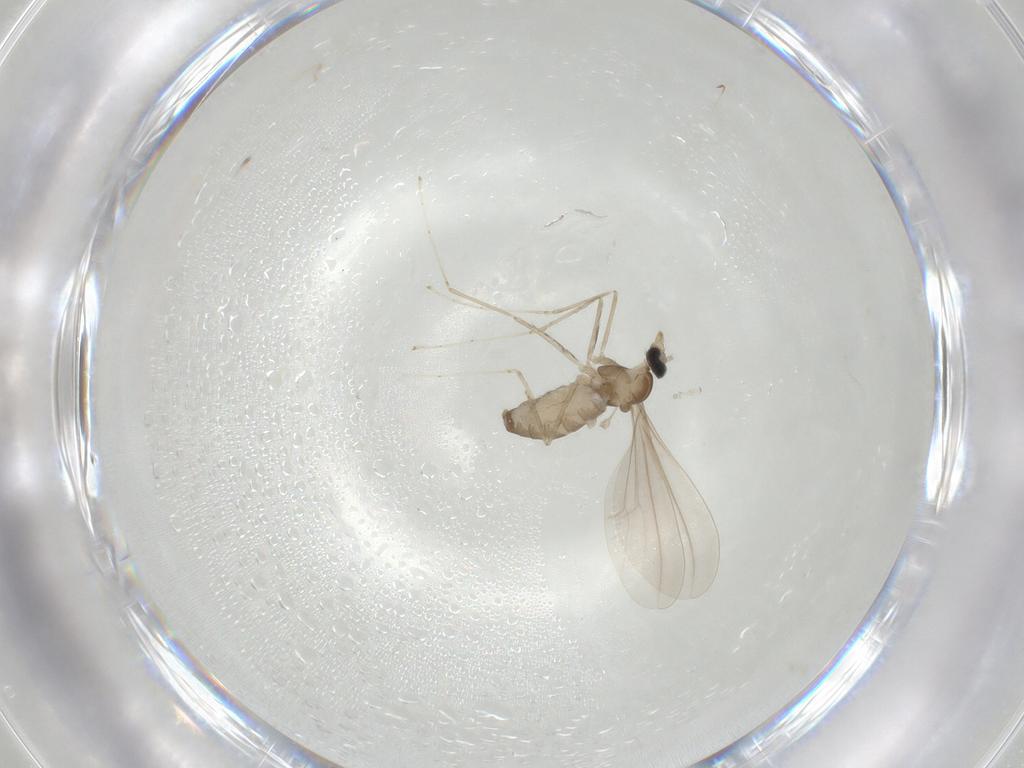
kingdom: Animalia
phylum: Arthropoda
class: Insecta
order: Diptera
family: Cecidomyiidae
